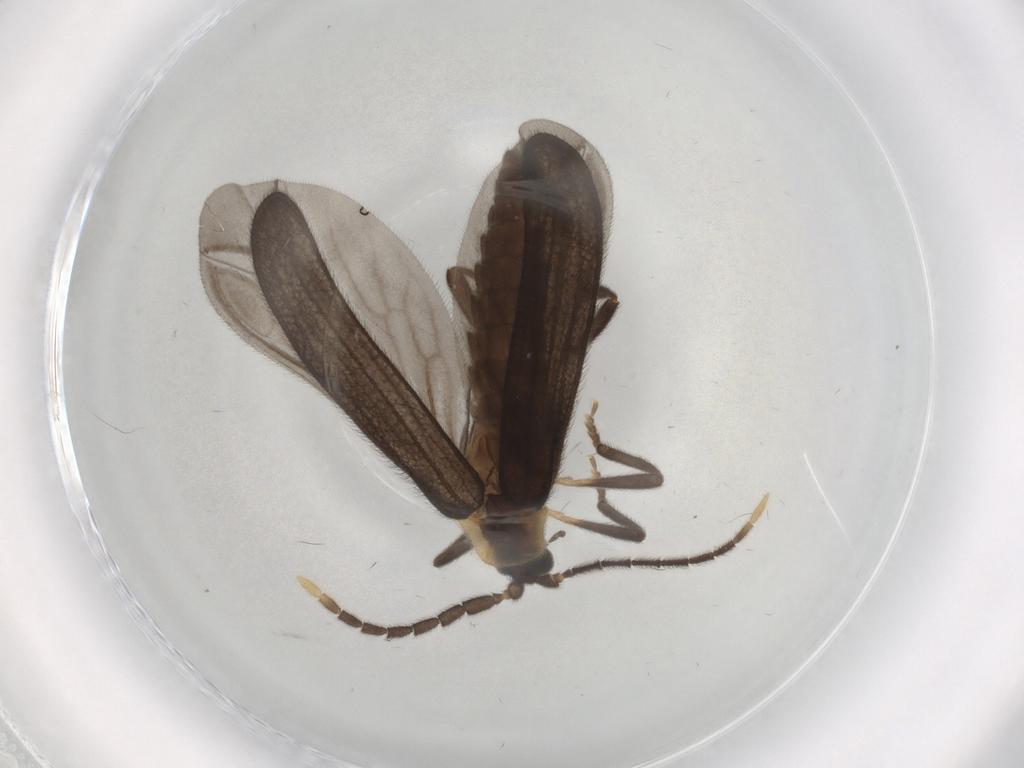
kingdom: Animalia
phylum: Arthropoda
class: Insecta
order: Coleoptera
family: Lycidae
